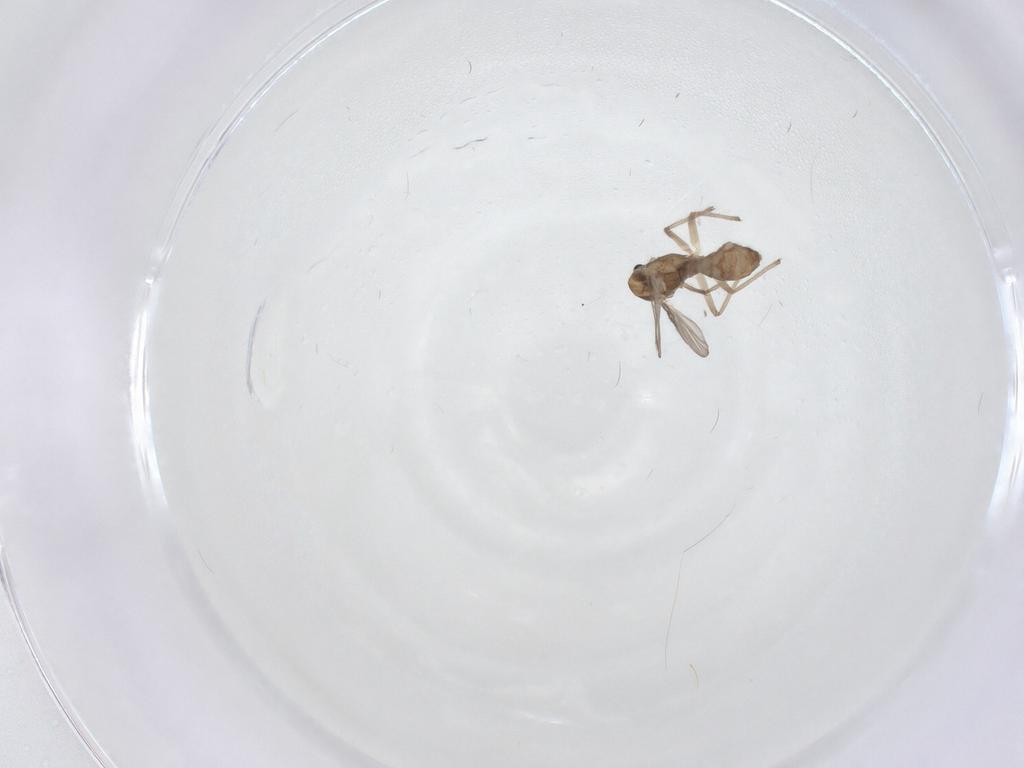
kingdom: Animalia
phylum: Arthropoda
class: Insecta
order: Diptera
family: Chironomidae
